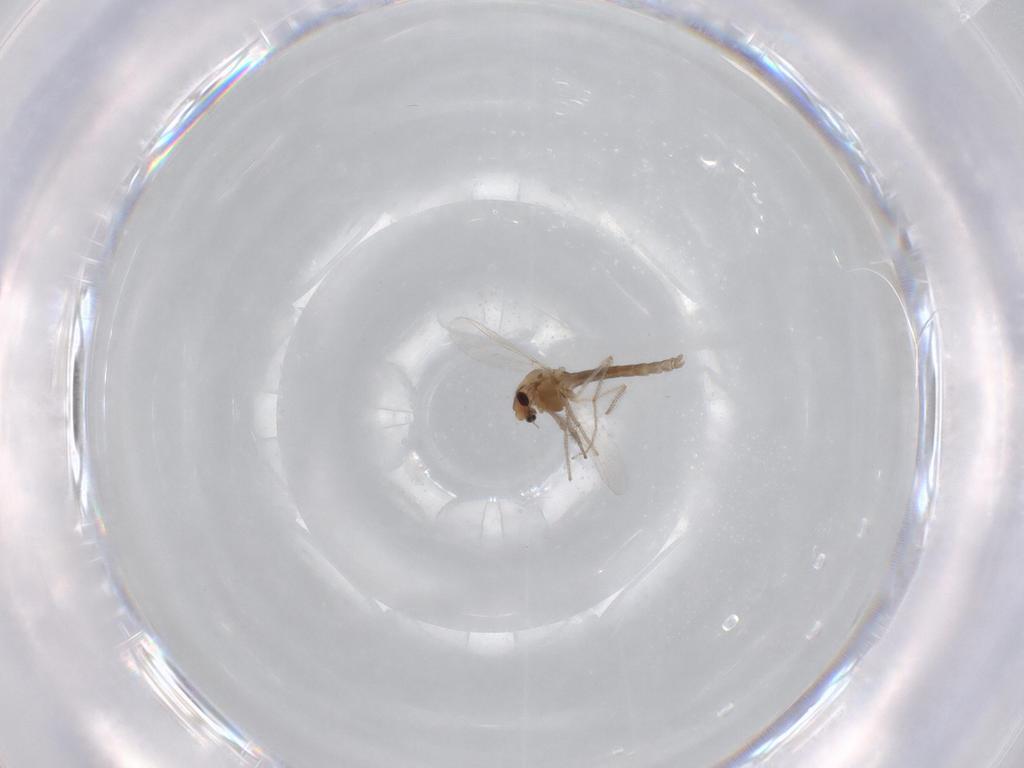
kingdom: Animalia
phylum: Arthropoda
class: Insecta
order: Diptera
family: Chironomidae
